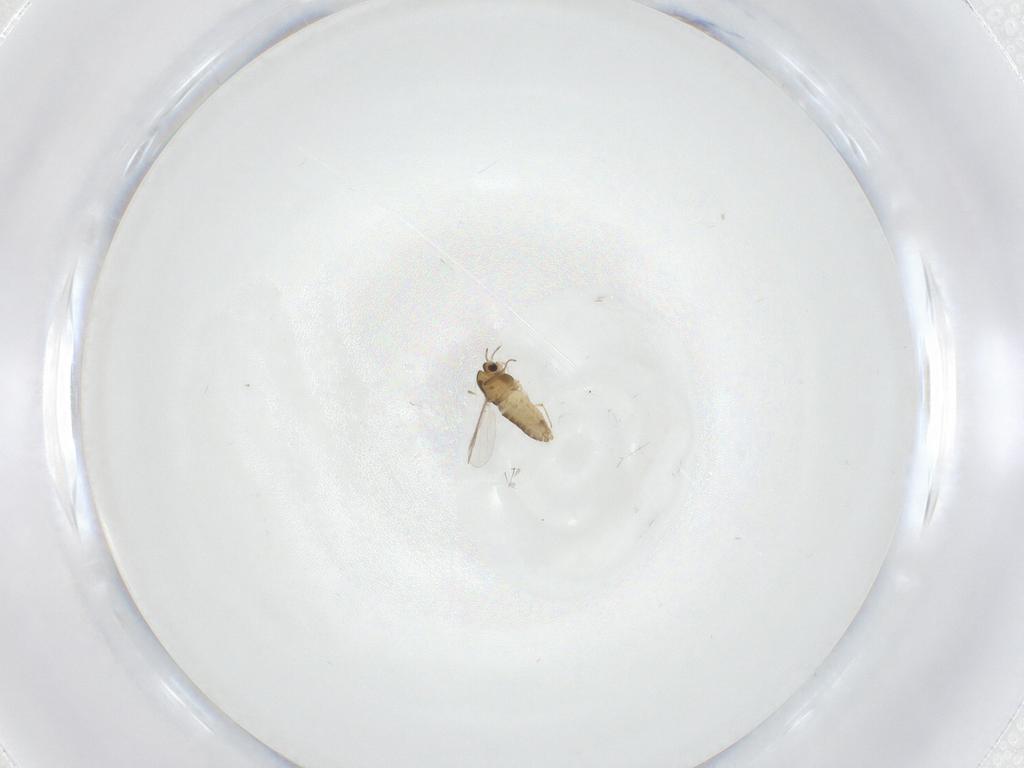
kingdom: Animalia
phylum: Arthropoda
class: Insecta
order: Diptera
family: Chironomidae
